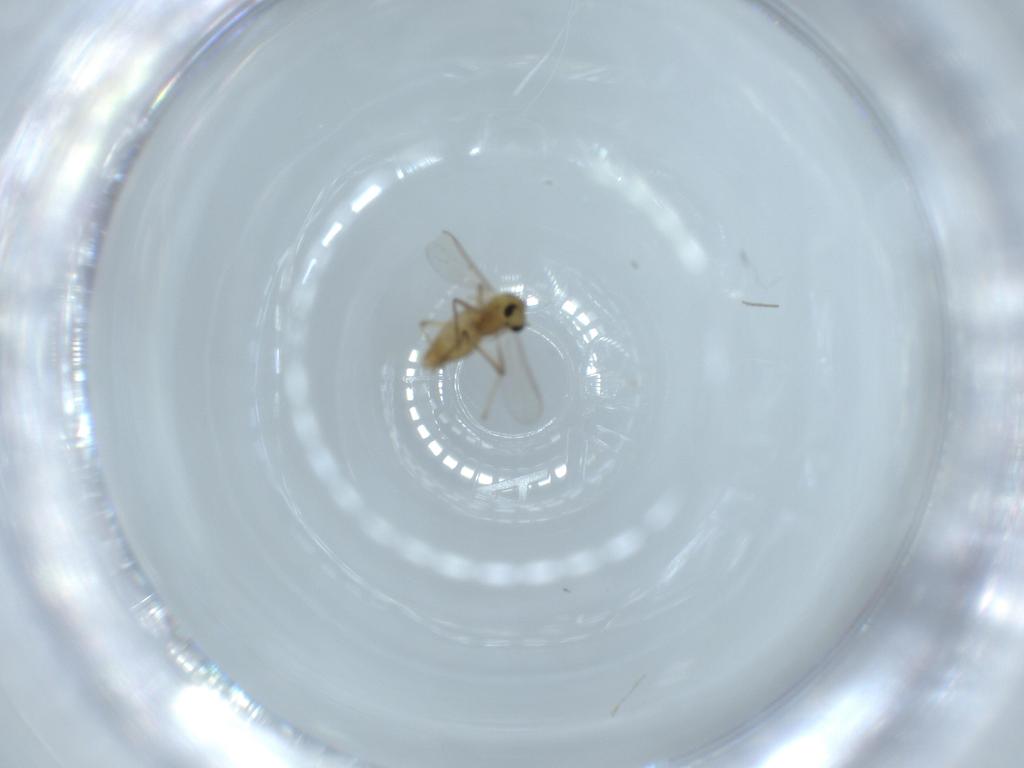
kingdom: Animalia
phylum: Arthropoda
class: Insecta
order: Diptera
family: Chironomidae
